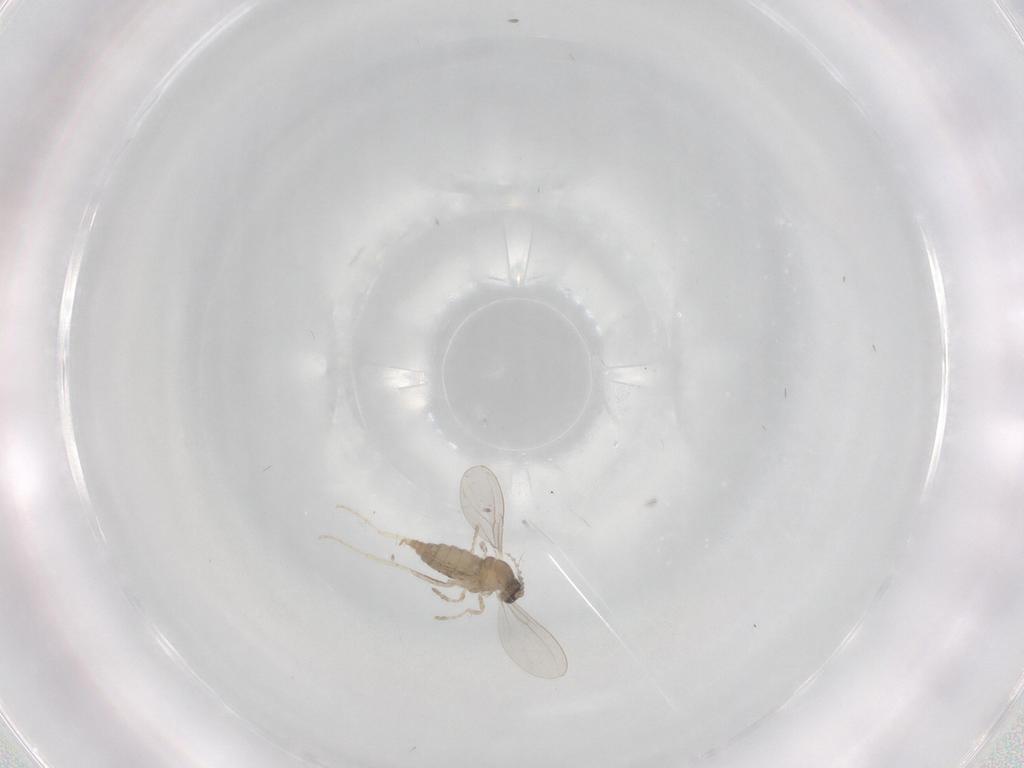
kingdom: Animalia
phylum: Arthropoda
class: Insecta
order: Diptera
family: Cecidomyiidae
